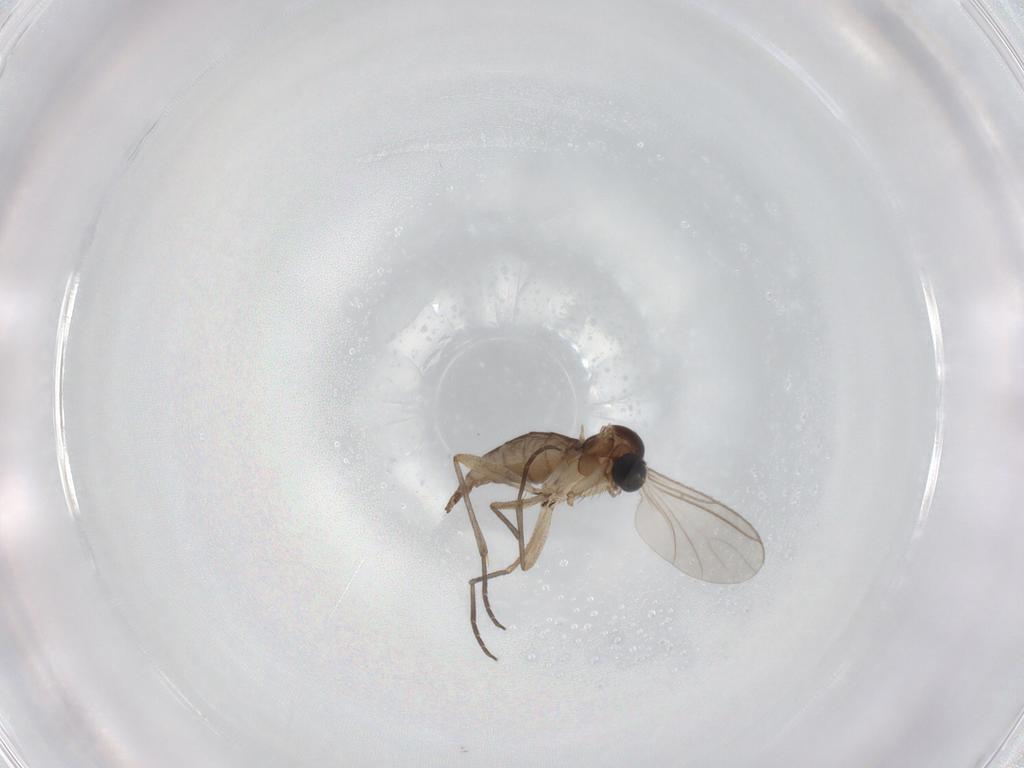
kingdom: Animalia
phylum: Arthropoda
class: Insecta
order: Diptera
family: Sciaridae
